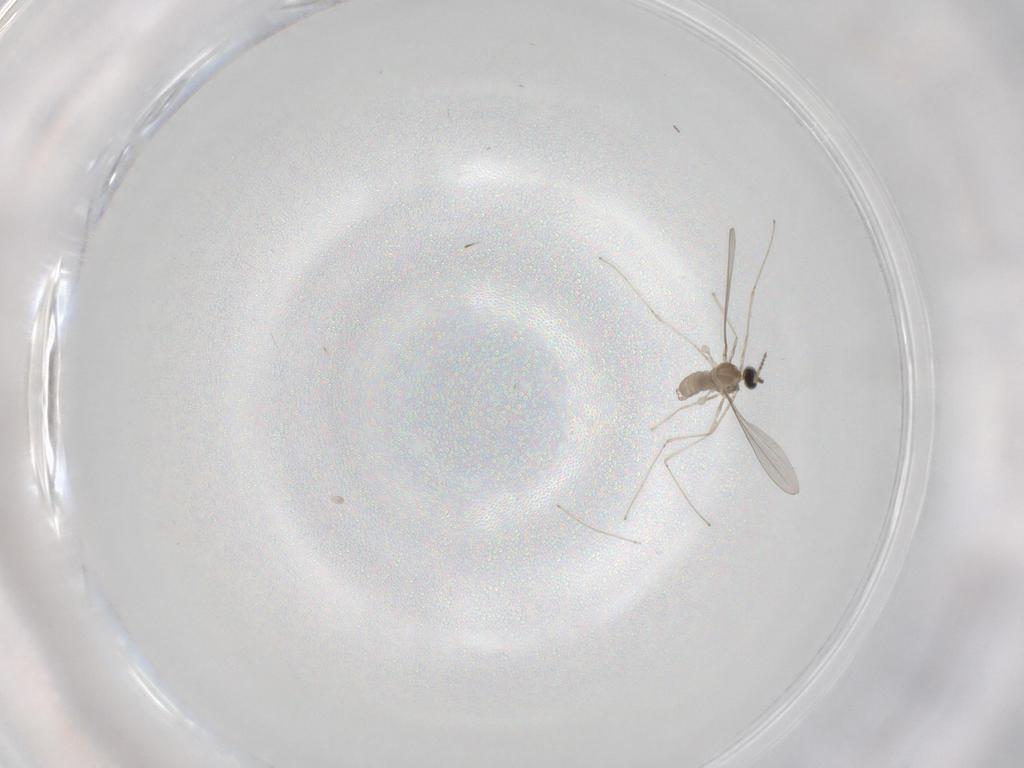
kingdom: Animalia
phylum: Arthropoda
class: Insecta
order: Diptera
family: Cecidomyiidae
